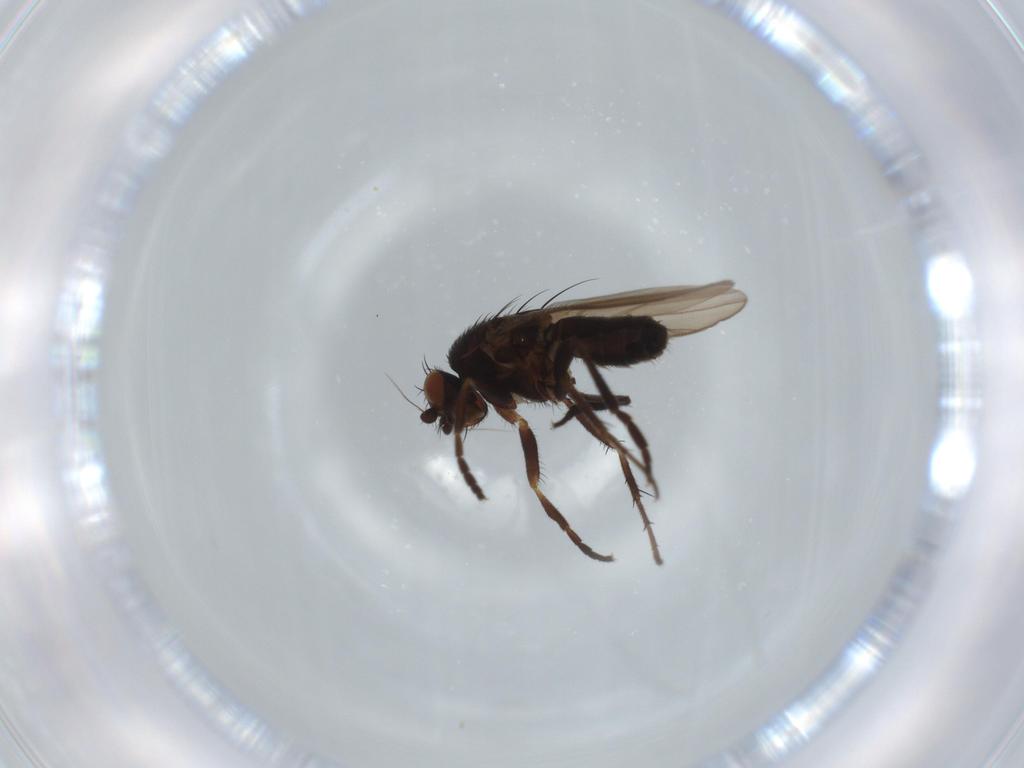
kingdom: Animalia
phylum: Arthropoda
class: Insecta
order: Diptera
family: Sphaeroceridae
